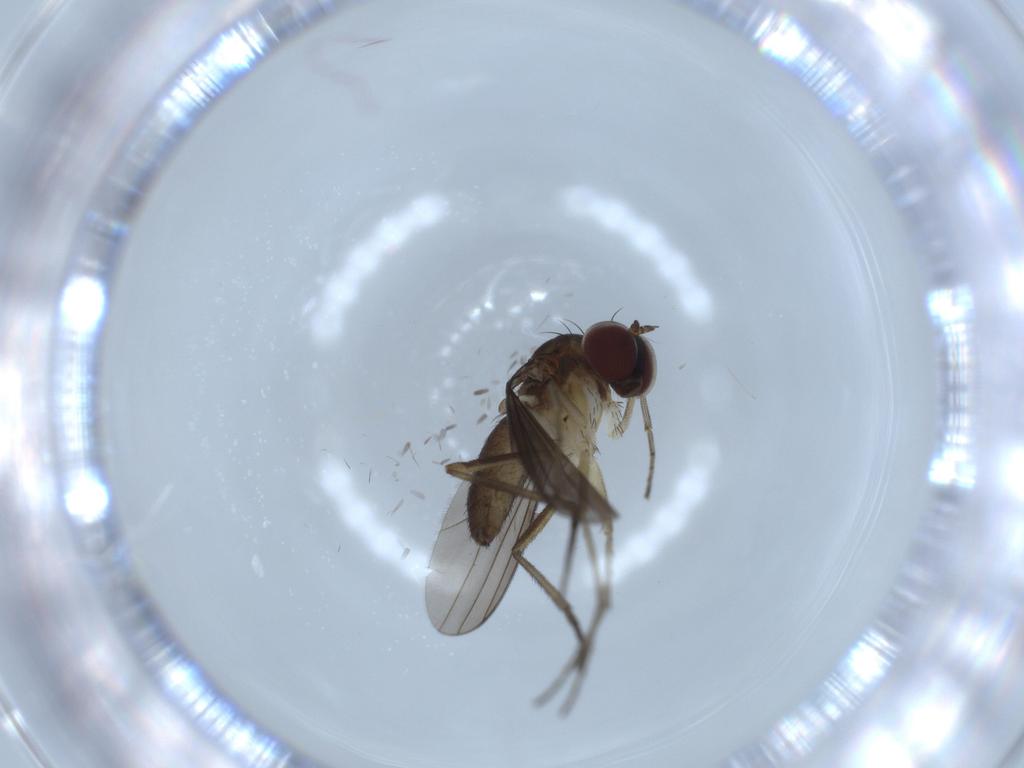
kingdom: Animalia
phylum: Arthropoda
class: Insecta
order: Diptera
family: Dolichopodidae
